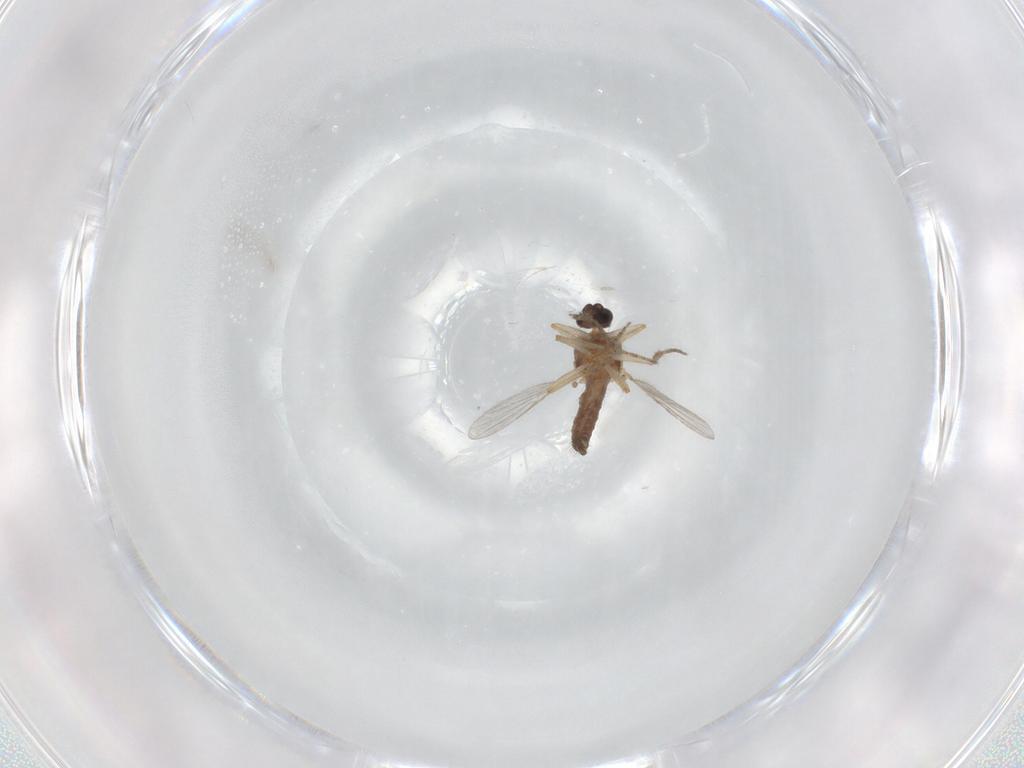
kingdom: Animalia
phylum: Arthropoda
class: Insecta
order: Diptera
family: Ceratopogonidae
